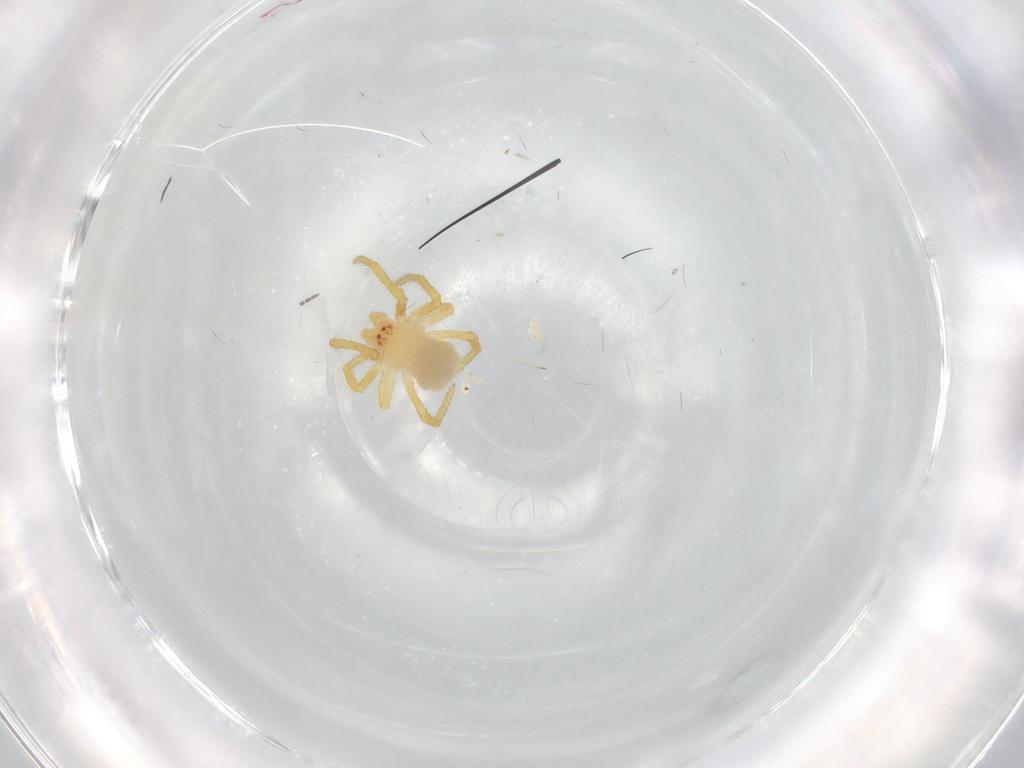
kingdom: Animalia
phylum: Arthropoda
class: Arachnida
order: Araneae
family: Theridiidae
